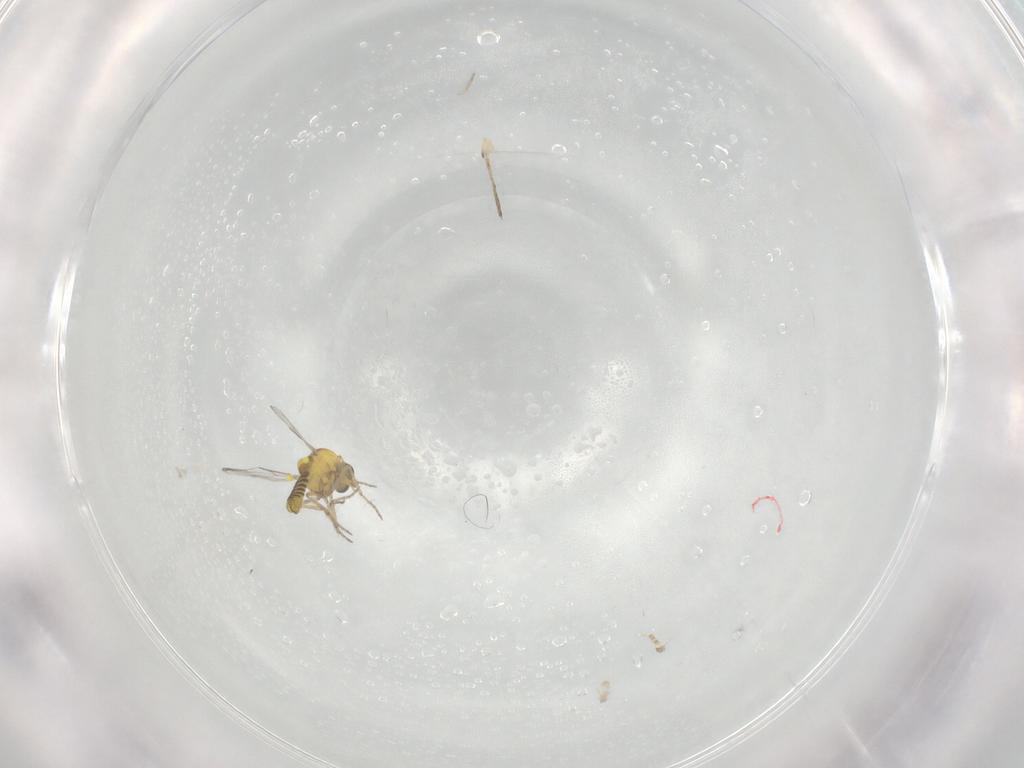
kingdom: Animalia
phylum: Arthropoda
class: Insecta
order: Diptera
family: Ceratopogonidae
